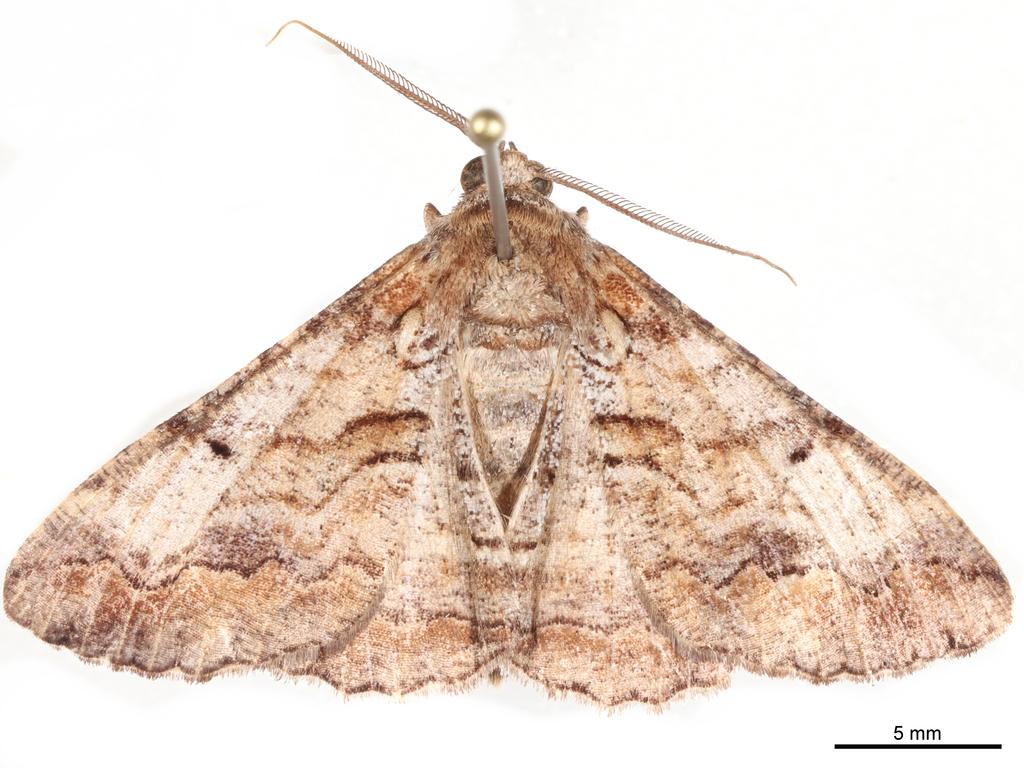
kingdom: Animalia
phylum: Arthropoda
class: Insecta
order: Lepidoptera
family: Geometridae
